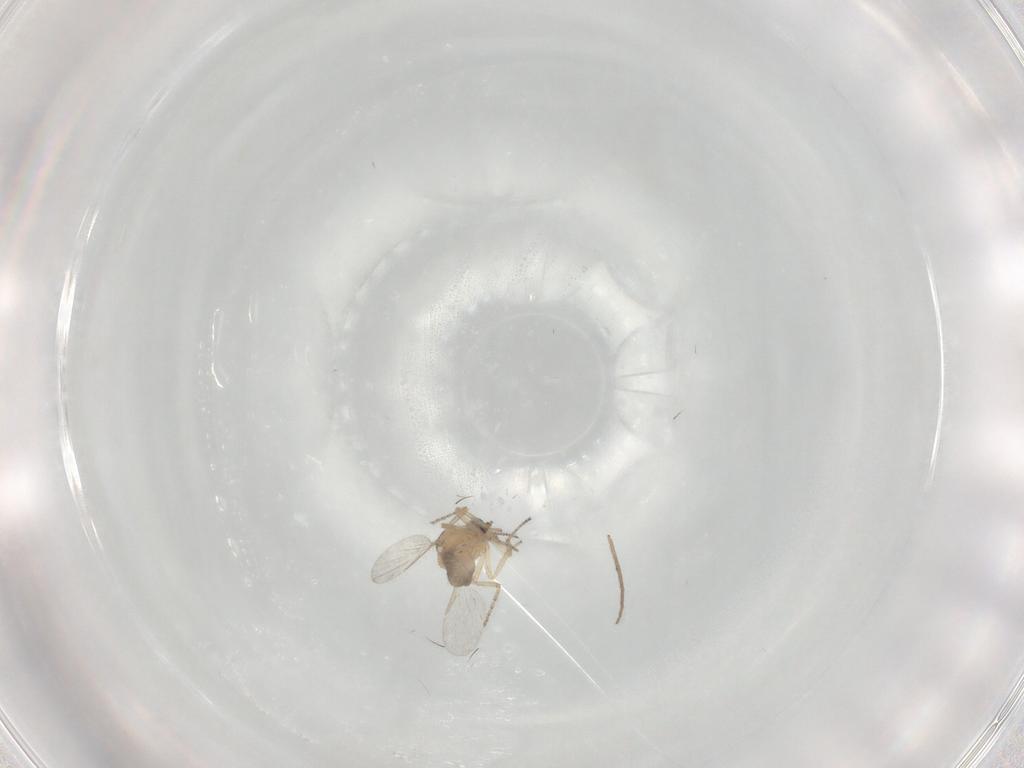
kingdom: Animalia
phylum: Arthropoda
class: Insecta
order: Diptera
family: Ceratopogonidae
